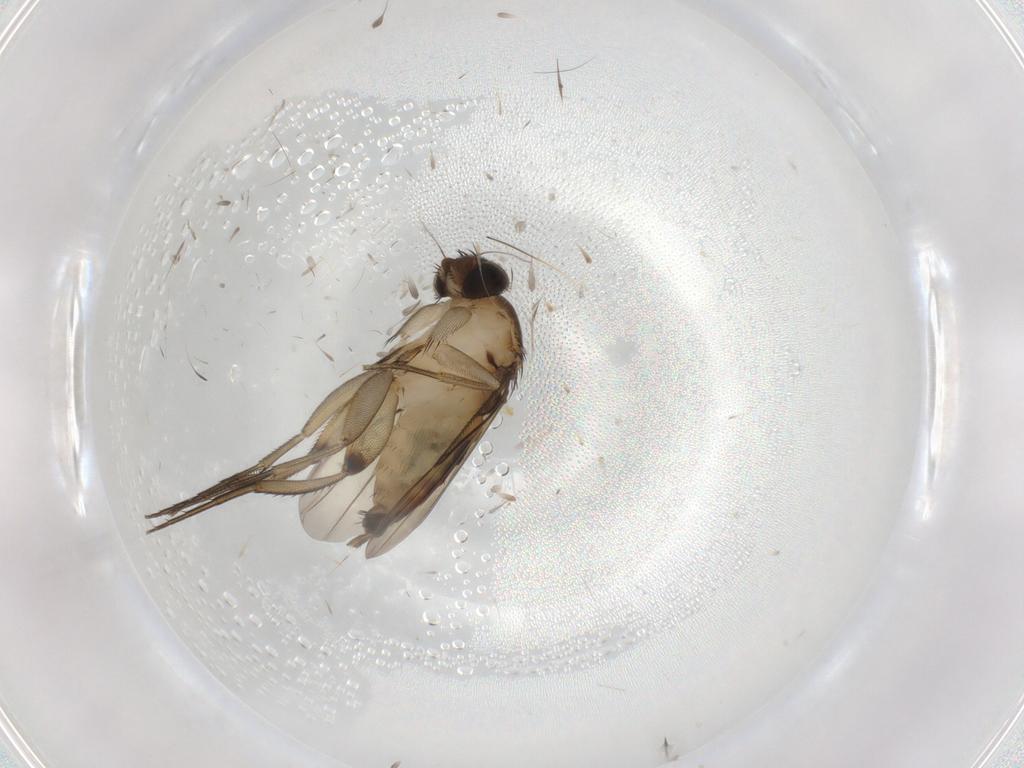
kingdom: Animalia
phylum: Arthropoda
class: Insecta
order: Diptera
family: Phoridae
